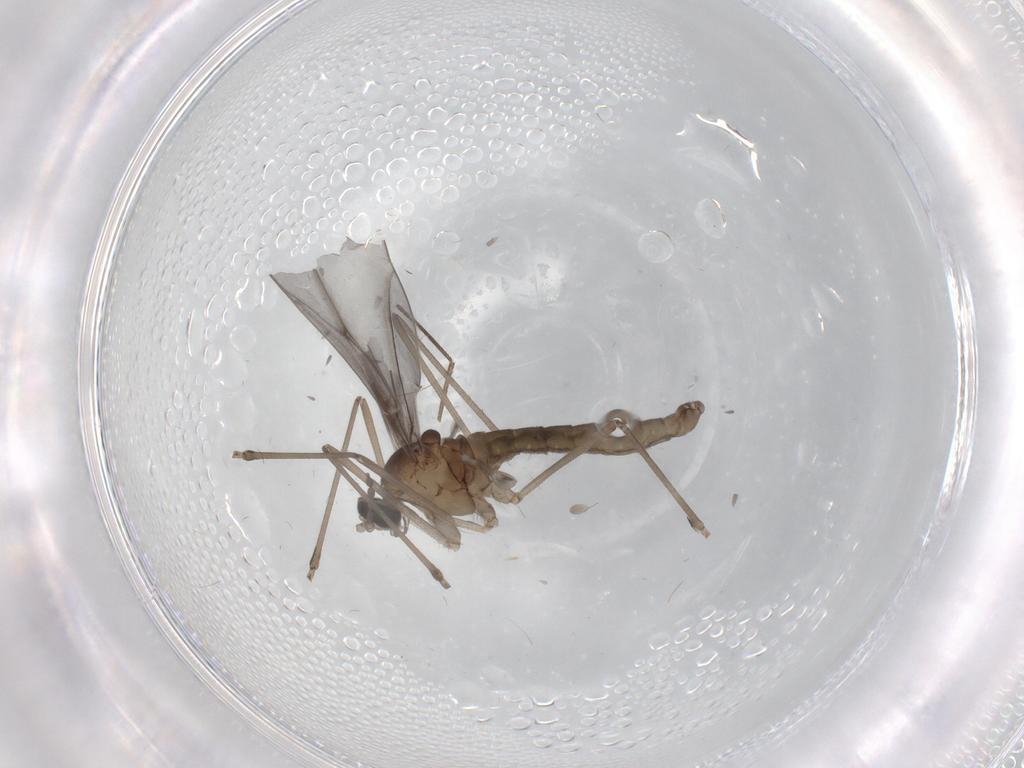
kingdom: Animalia
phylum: Arthropoda
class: Insecta
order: Diptera
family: Cecidomyiidae
